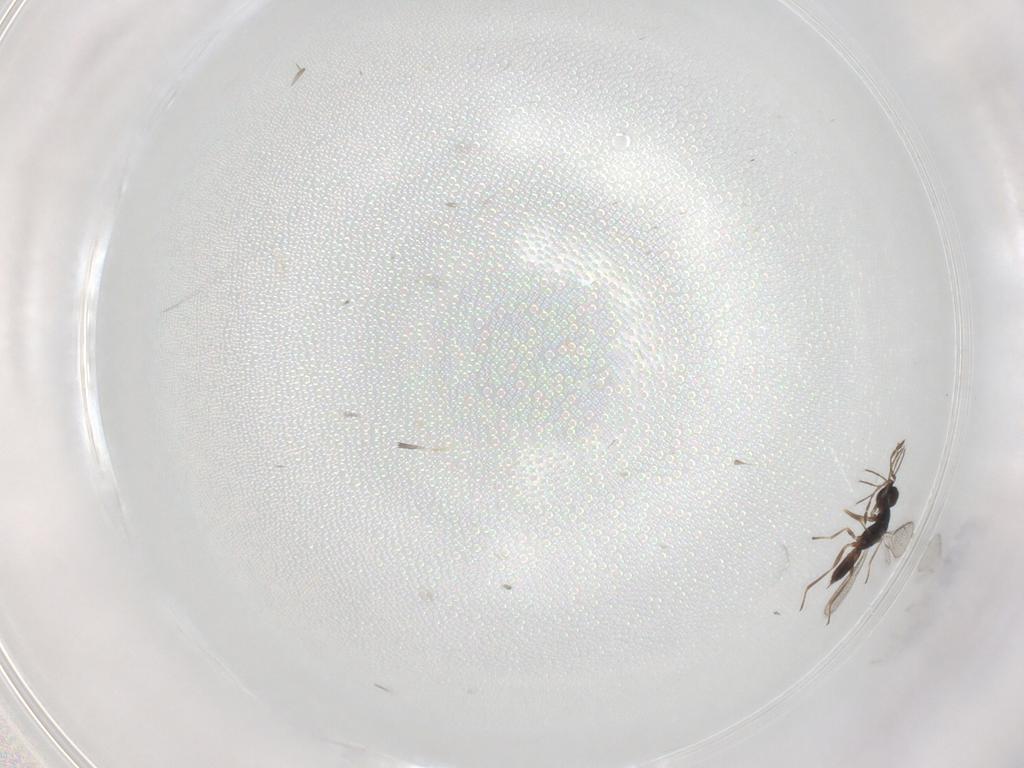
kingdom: Animalia
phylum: Arthropoda
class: Insecta
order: Hymenoptera
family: Eulophidae
